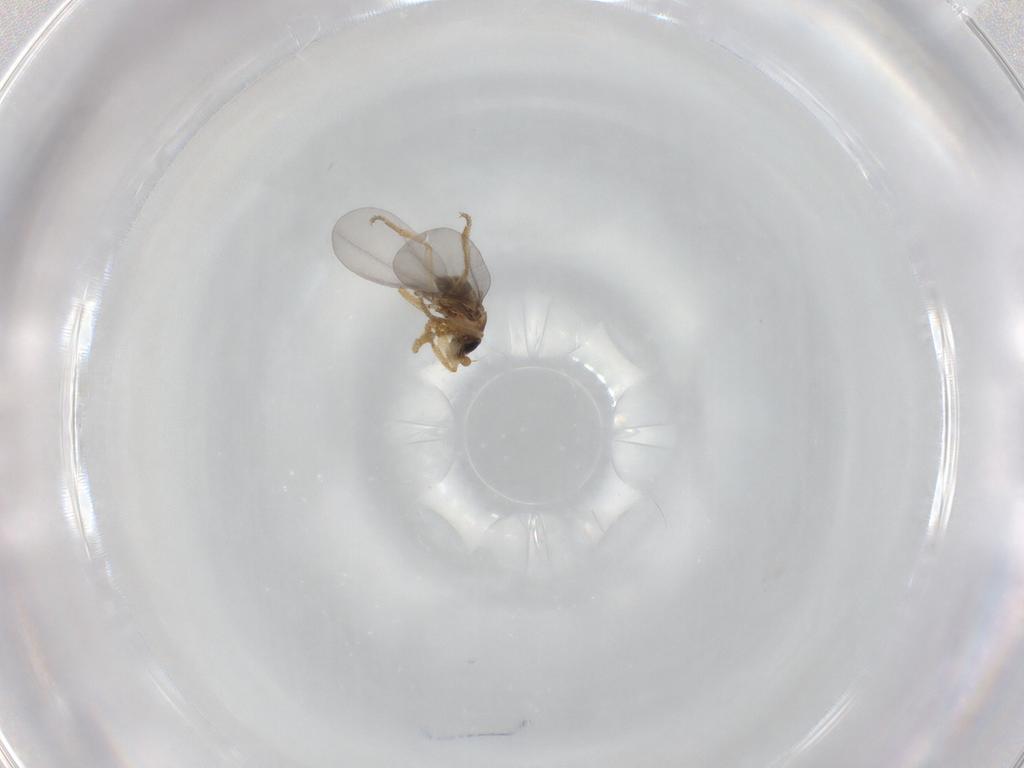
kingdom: Animalia
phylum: Arthropoda
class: Insecta
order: Diptera
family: Phoridae
